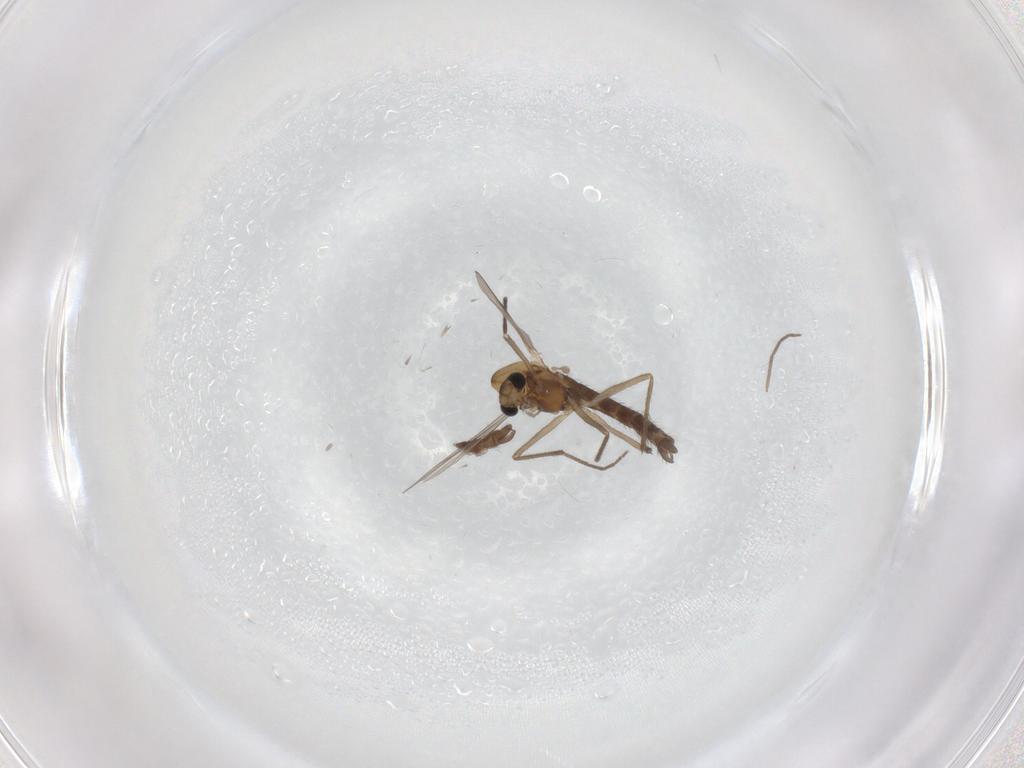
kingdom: Animalia
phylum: Arthropoda
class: Insecta
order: Diptera
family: Chironomidae
